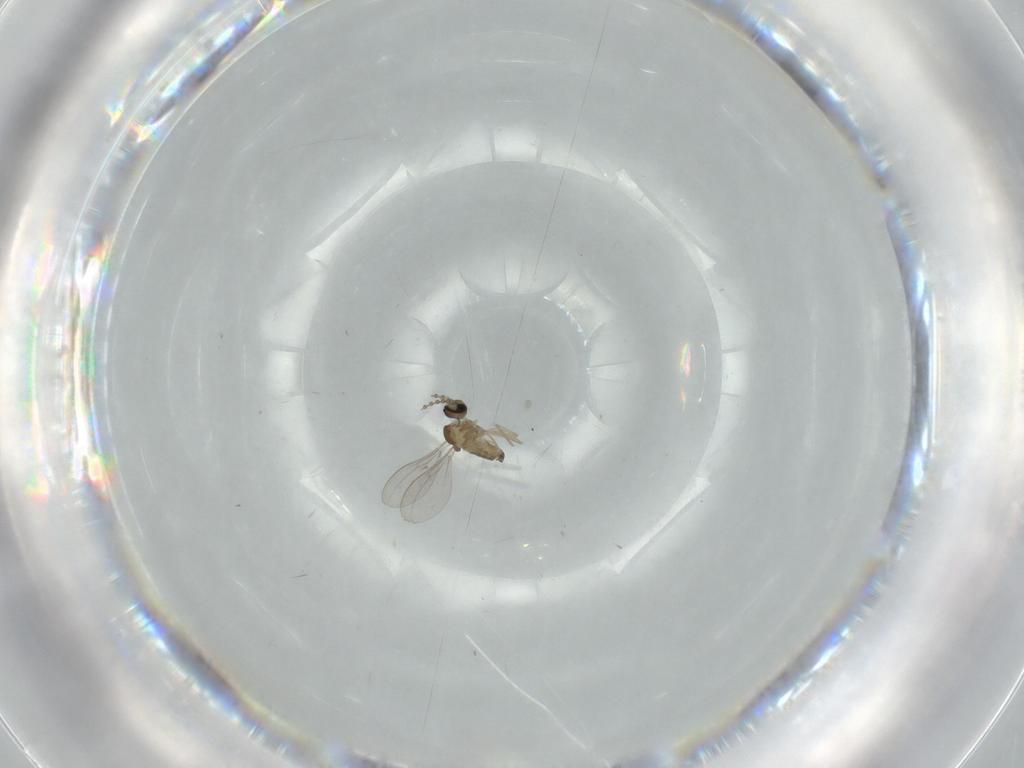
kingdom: Animalia
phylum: Arthropoda
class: Insecta
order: Diptera
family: Cecidomyiidae
